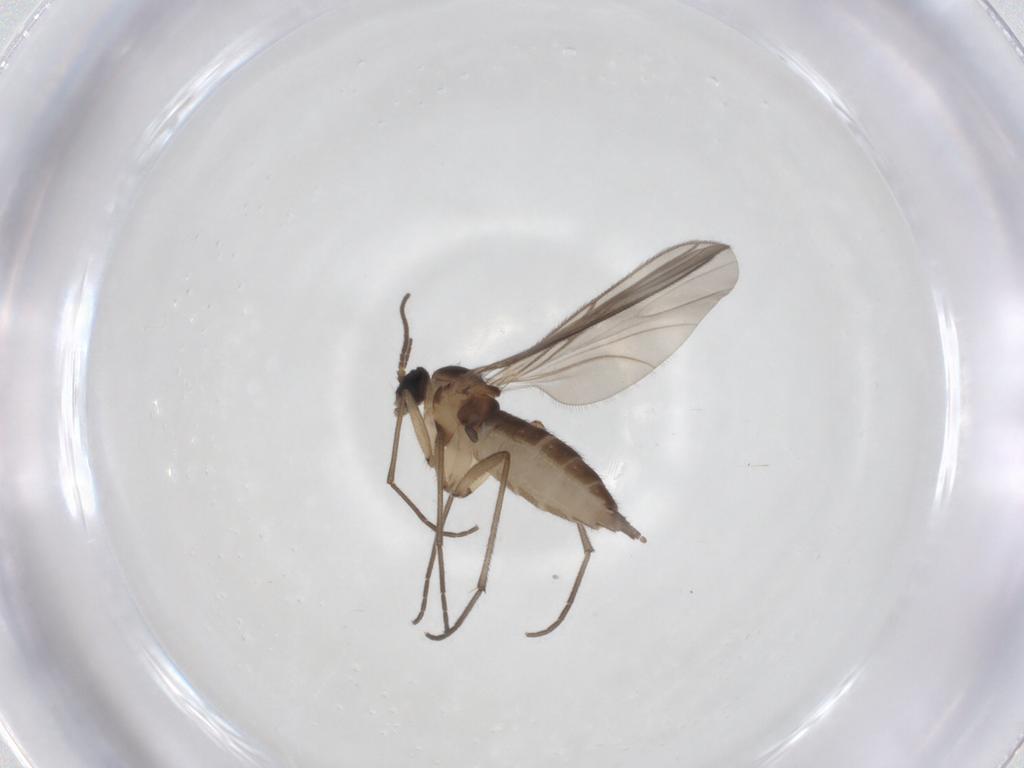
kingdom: Animalia
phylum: Arthropoda
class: Insecta
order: Diptera
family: Sciaridae
